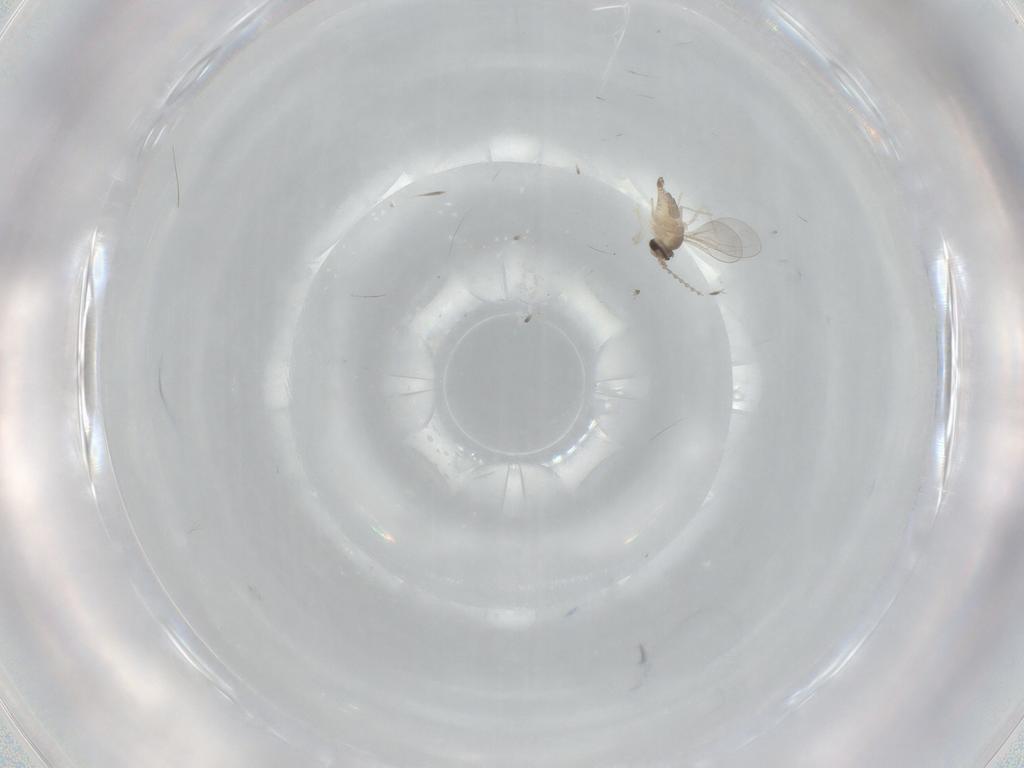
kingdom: Animalia
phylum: Arthropoda
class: Insecta
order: Diptera
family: Cecidomyiidae
